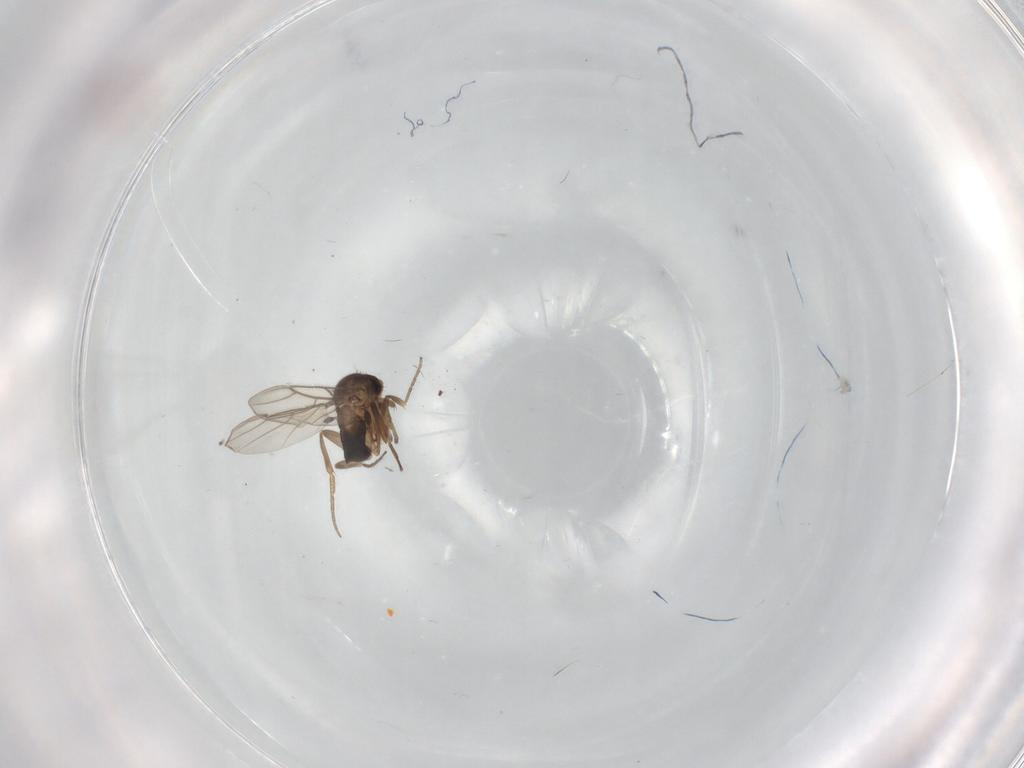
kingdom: Animalia
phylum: Arthropoda
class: Insecta
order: Diptera
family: Phoridae
